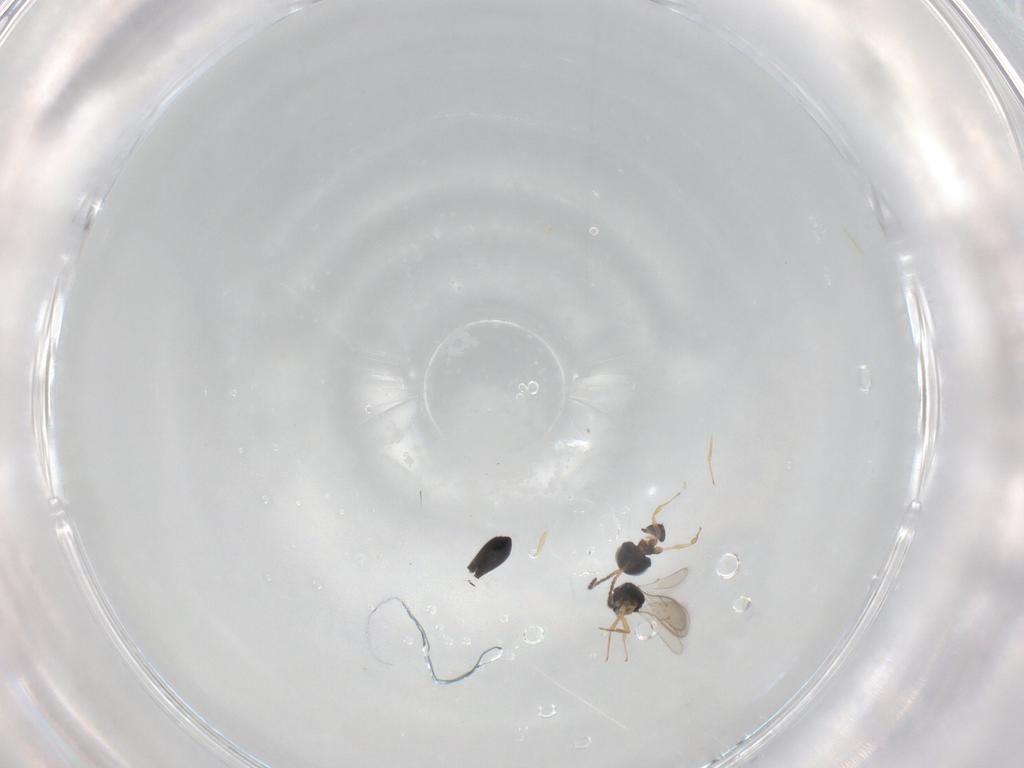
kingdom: Animalia
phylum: Arthropoda
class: Insecta
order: Hymenoptera
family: Scelionidae
